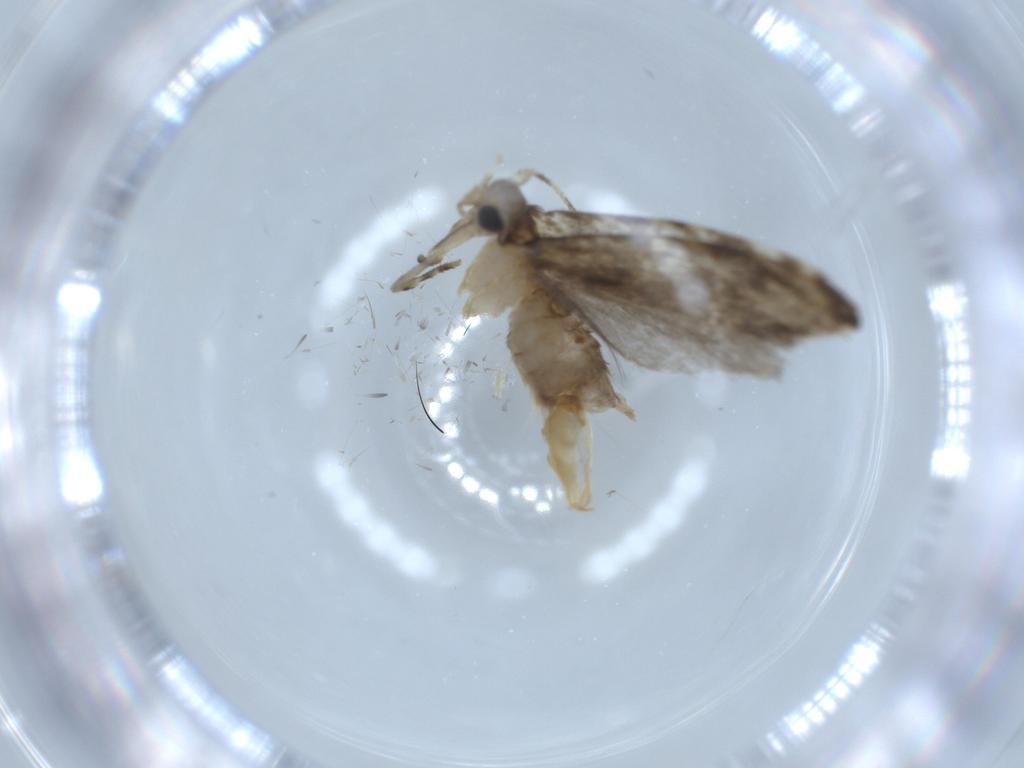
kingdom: Animalia
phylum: Arthropoda
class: Insecta
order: Lepidoptera
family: Tineidae
